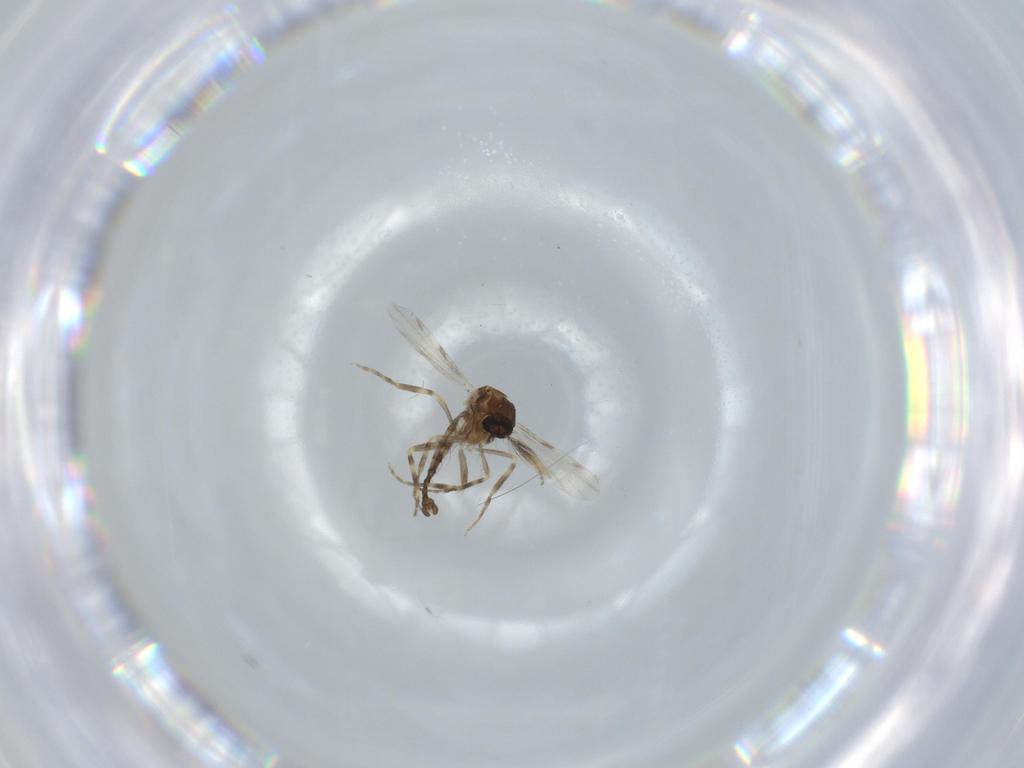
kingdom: Animalia
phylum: Arthropoda
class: Insecta
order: Diptera
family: Ceratopogonidae
